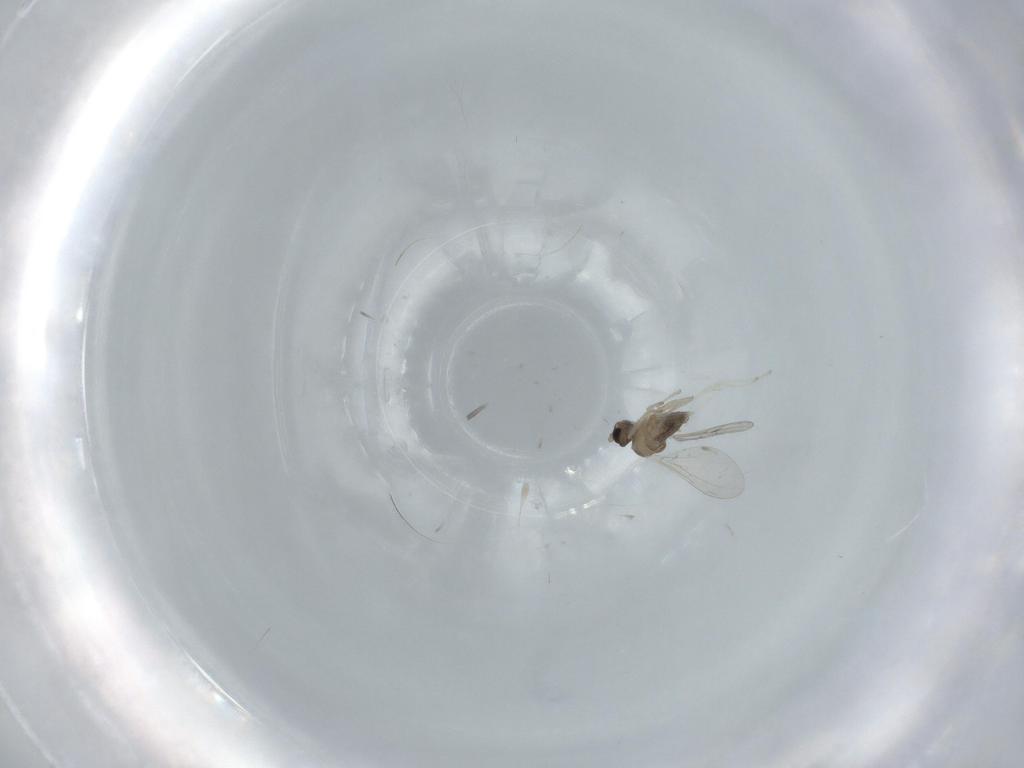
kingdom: Animalia
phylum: Arthropoda
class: Insecta
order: Diptera
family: Cecidomyiidae
